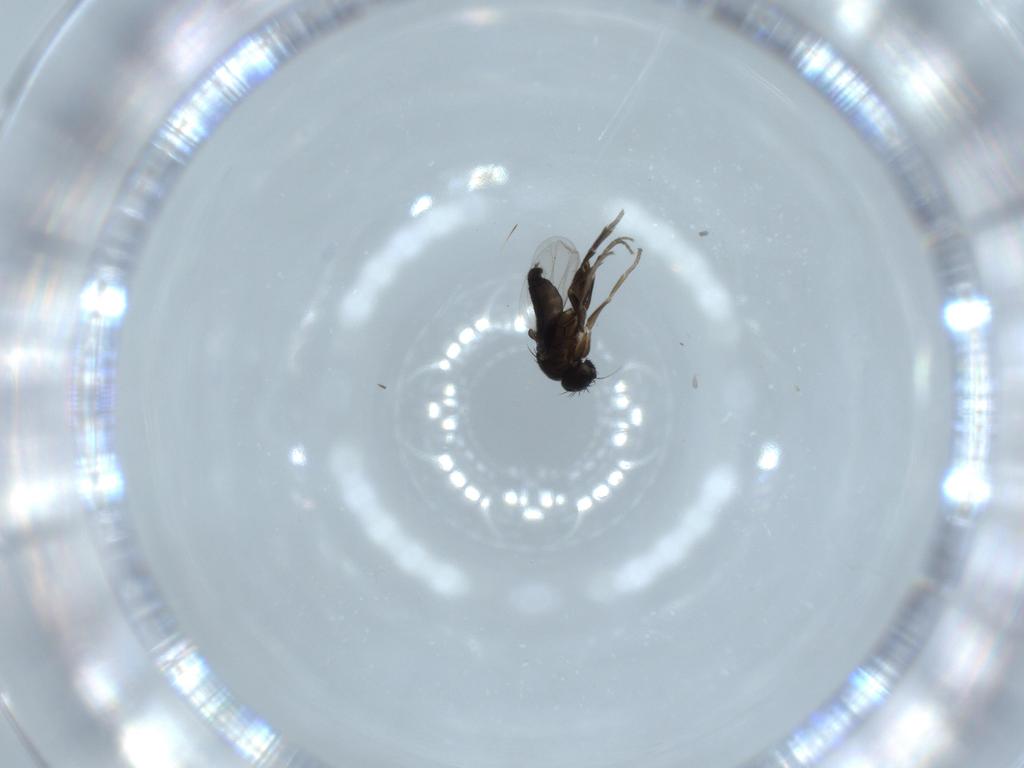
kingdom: Animalia
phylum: Arthropoda
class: Insecta
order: Diptera
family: Phoridae
